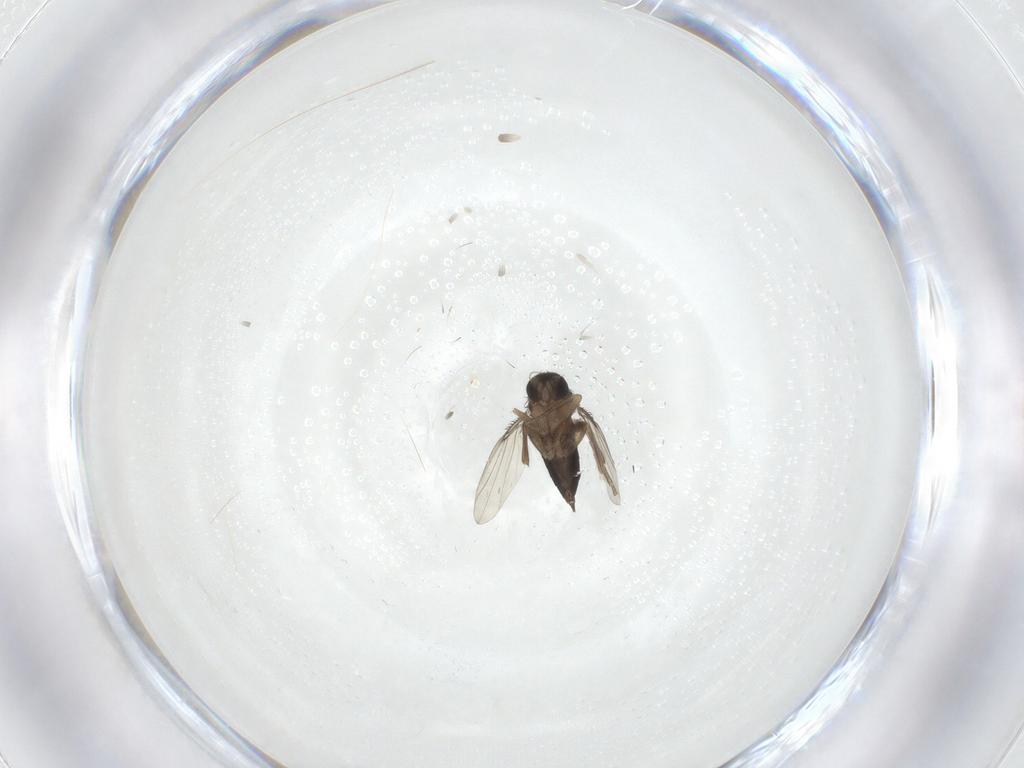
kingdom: Animalia
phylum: Arthropoda
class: Insecta
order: Diptera
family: Phoridae
